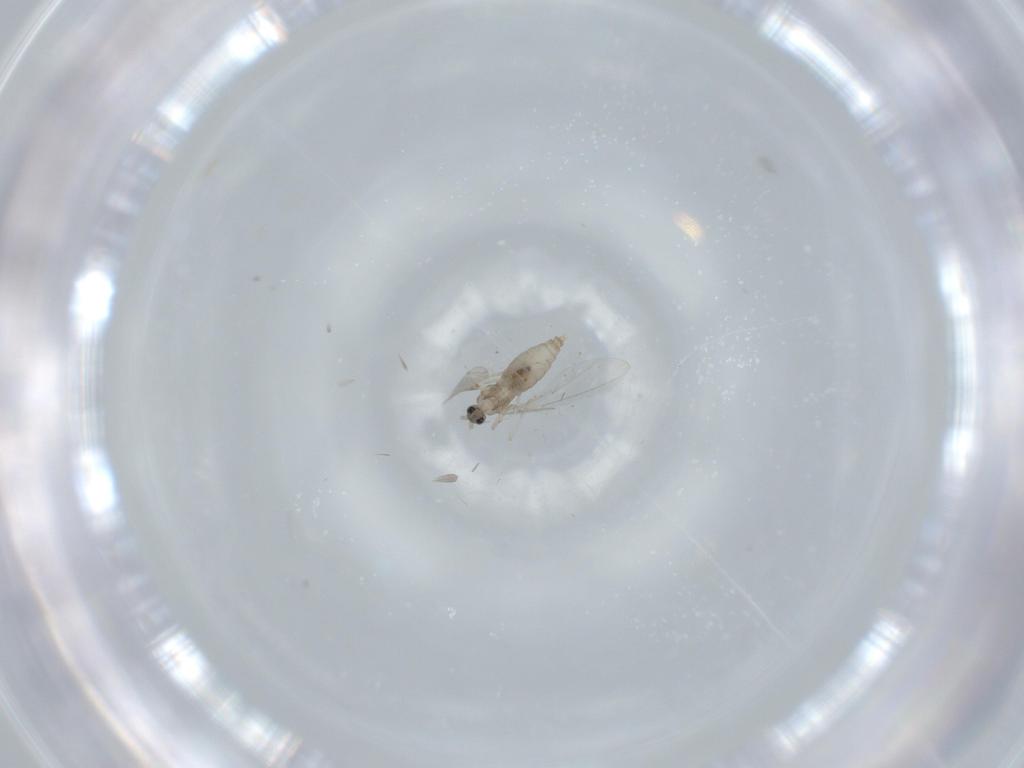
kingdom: Animalia
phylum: Arthropoda
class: Insecta
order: Diptera
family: Cecidomyiidae
